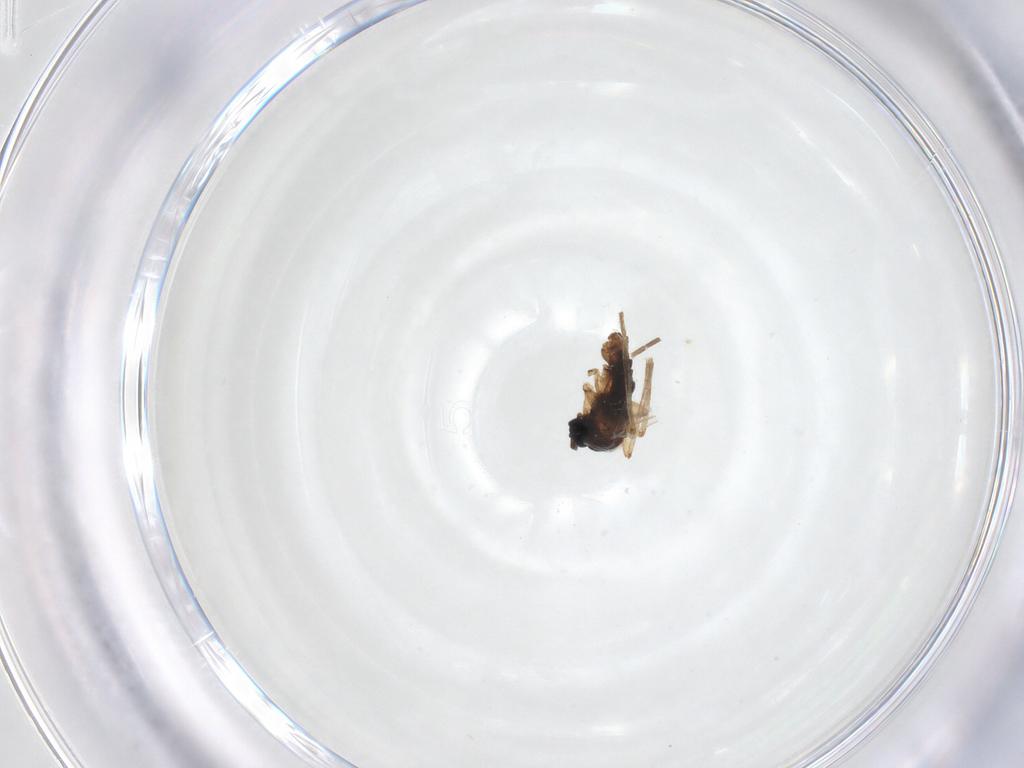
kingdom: Animalia
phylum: Arthropoda
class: Insecta
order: Diptera
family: Sciaridae
